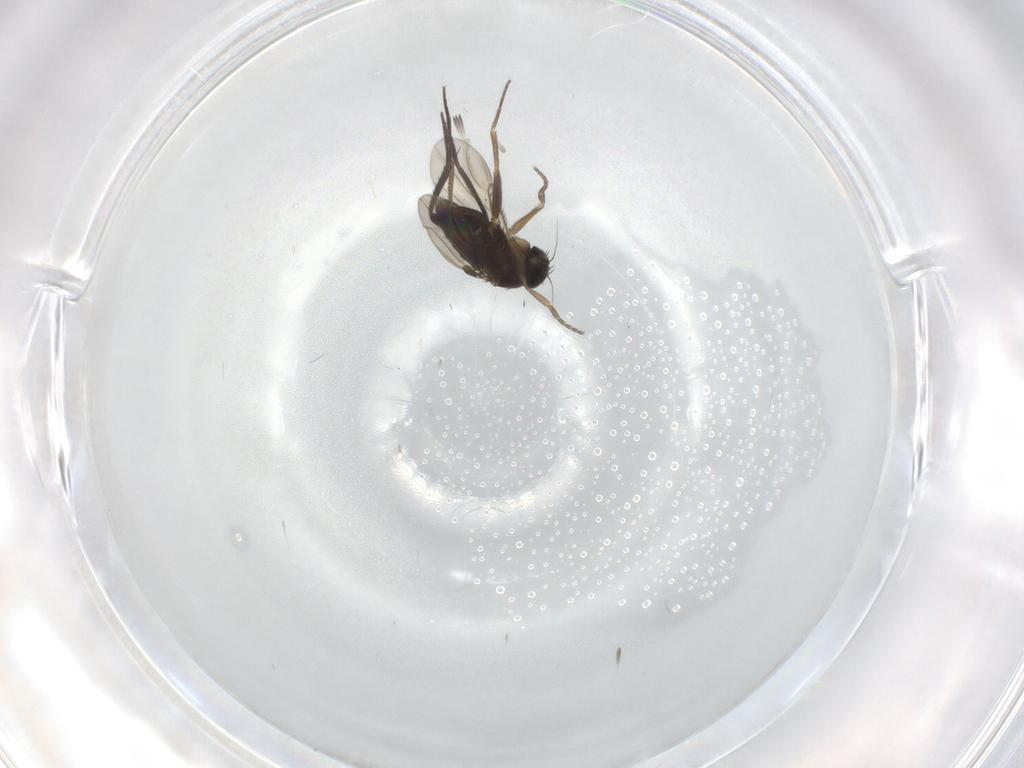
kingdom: Animalia
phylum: Arthropoda
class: Insecta
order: Diptera
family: Phoridae
